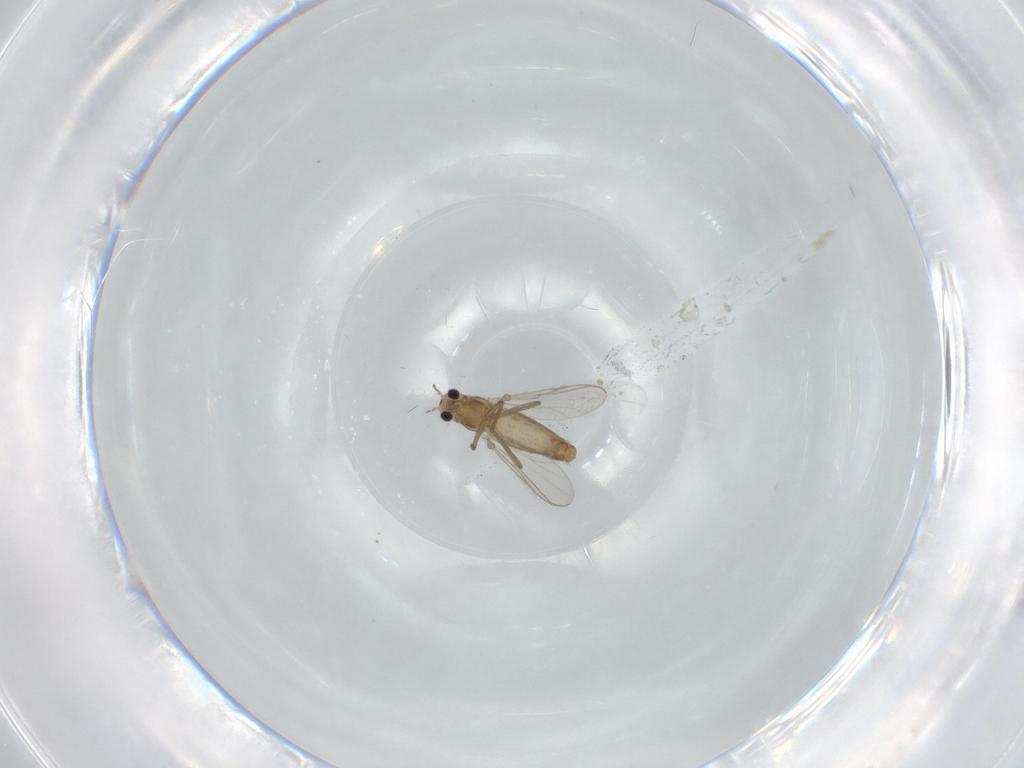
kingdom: Animalia
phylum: Arthropoda
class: Insecta
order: Diptera
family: Chironomidae
